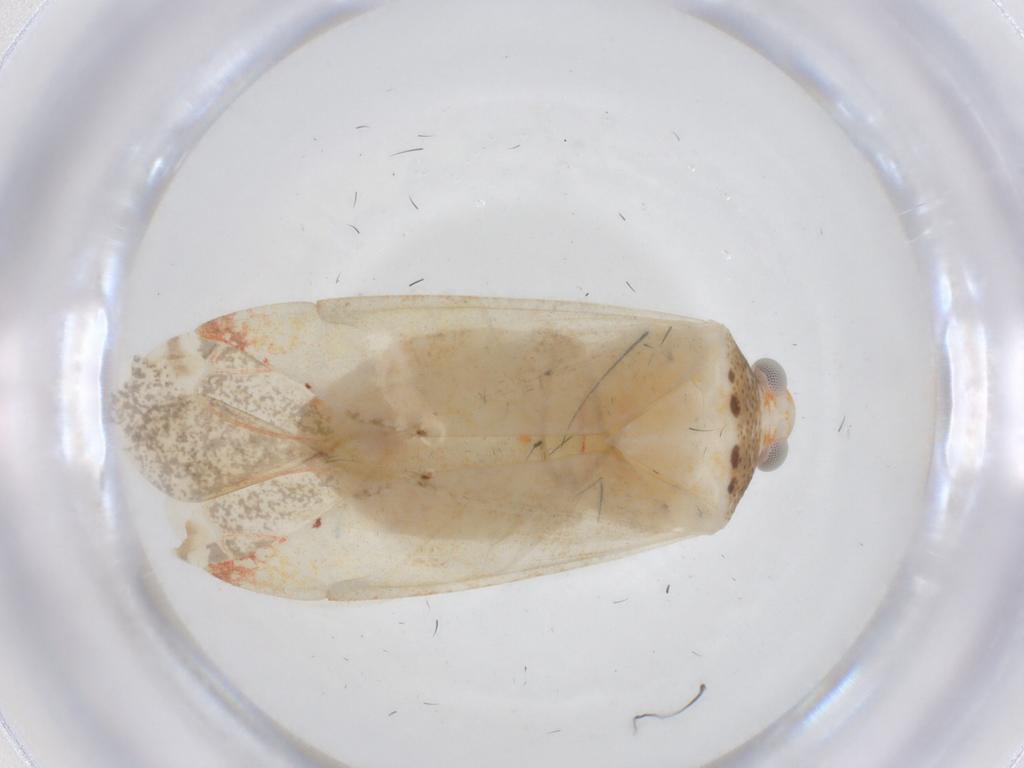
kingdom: Animalia
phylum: Arthropoda
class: Insecta
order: Hemiptera
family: Miridae
